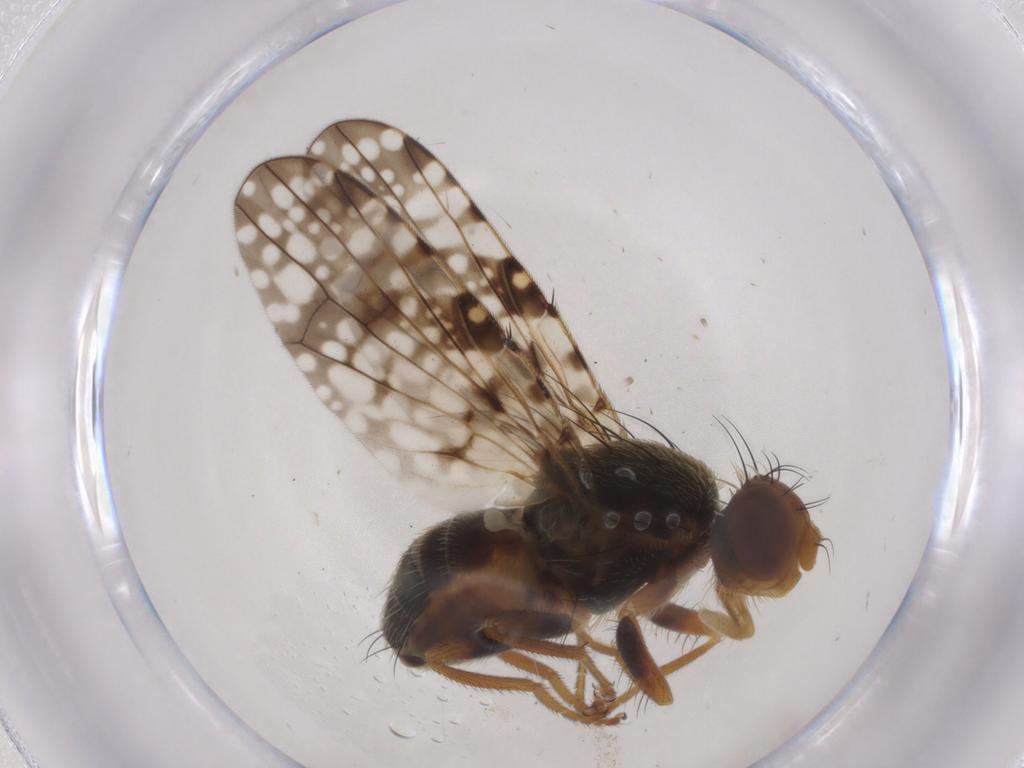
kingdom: Animalia
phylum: Arthropoda
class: Insecta
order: Diptera
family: Tephritidae
